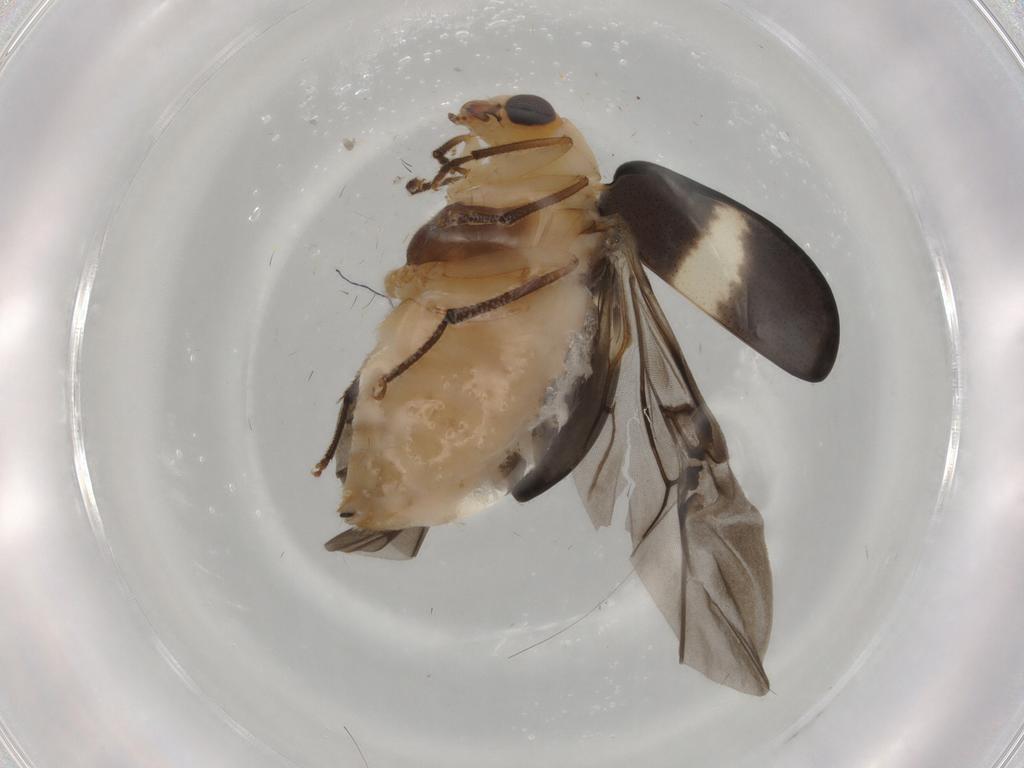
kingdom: Animalia
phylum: Arthropoda
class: Insecta
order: Coleoptera
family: Chrysomelidae
